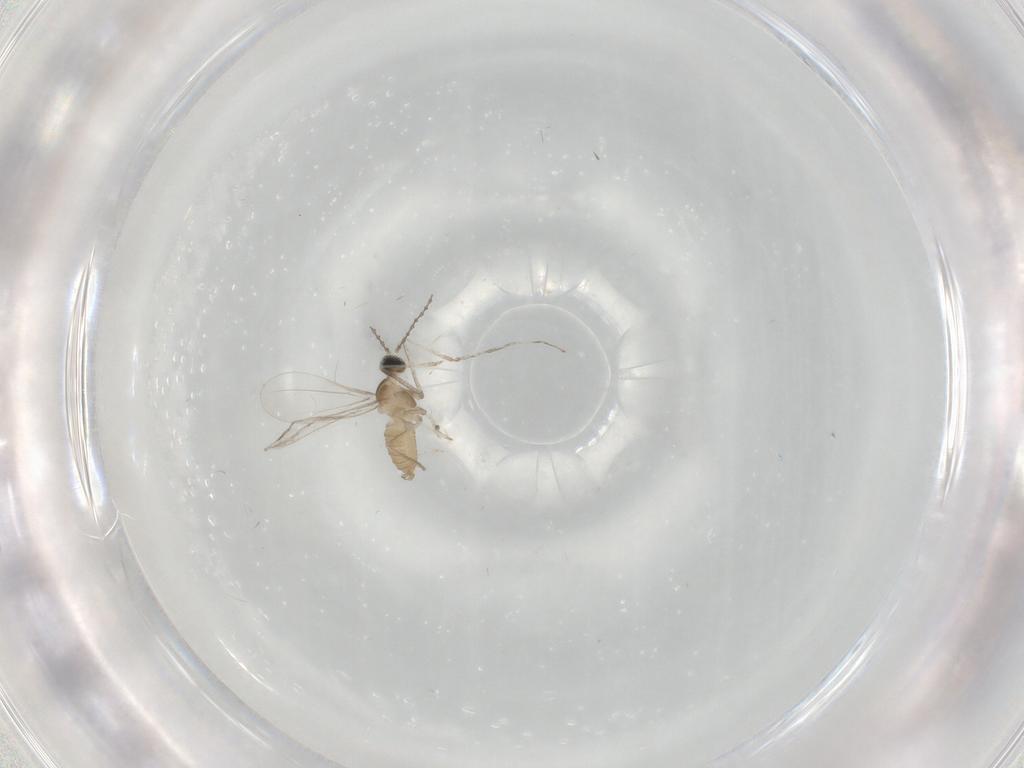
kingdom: Animalia
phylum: Arthropoda
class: Insecta
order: Diptera
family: Cecidomyiidae
